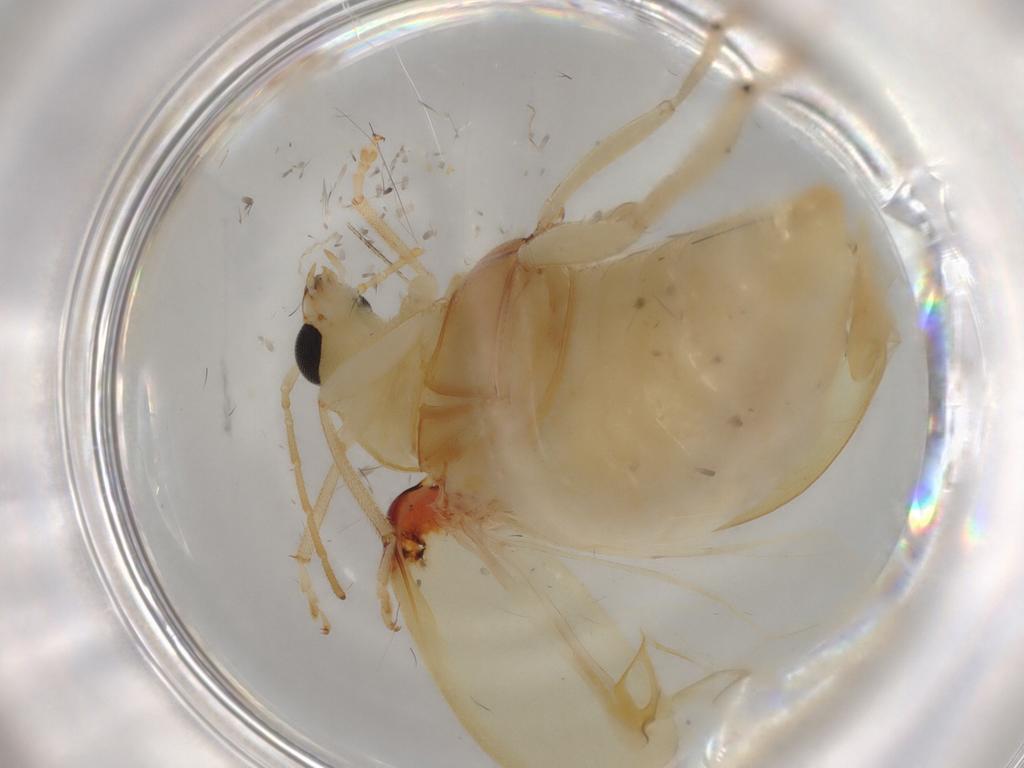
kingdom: Animalia
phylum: Arthropoda
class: Insecta
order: Coleoptera
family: Chrysomelidae
